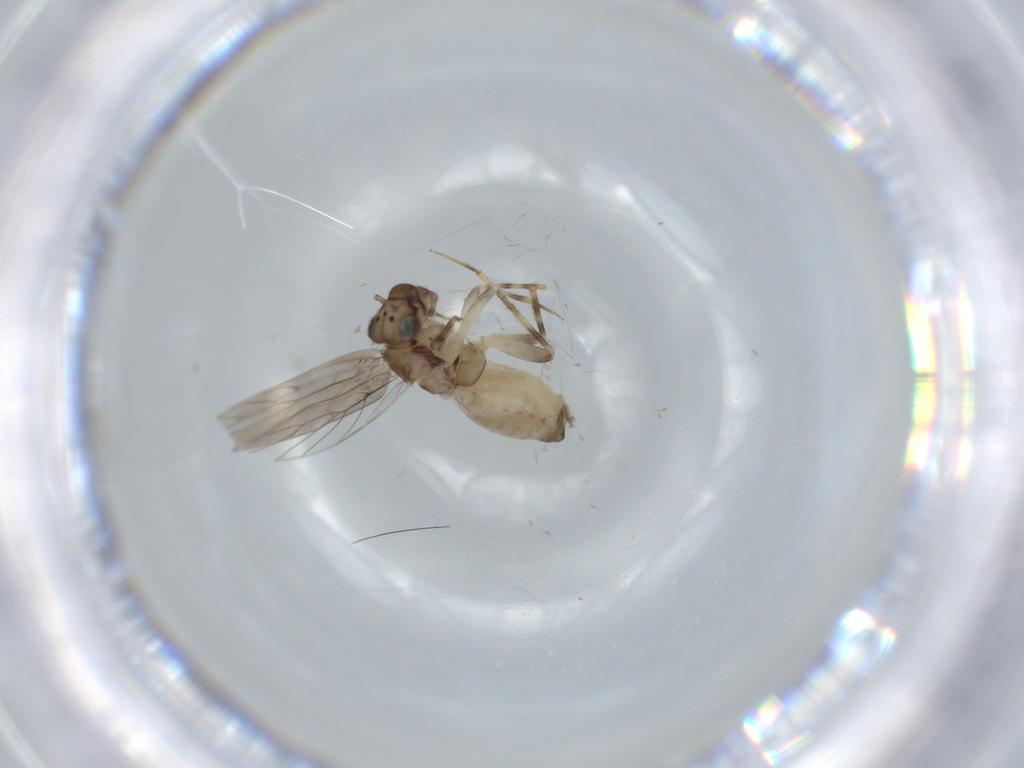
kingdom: Animalia
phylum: Arthropoda
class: Insecta
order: Psocodea
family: Lepidopsocidae
